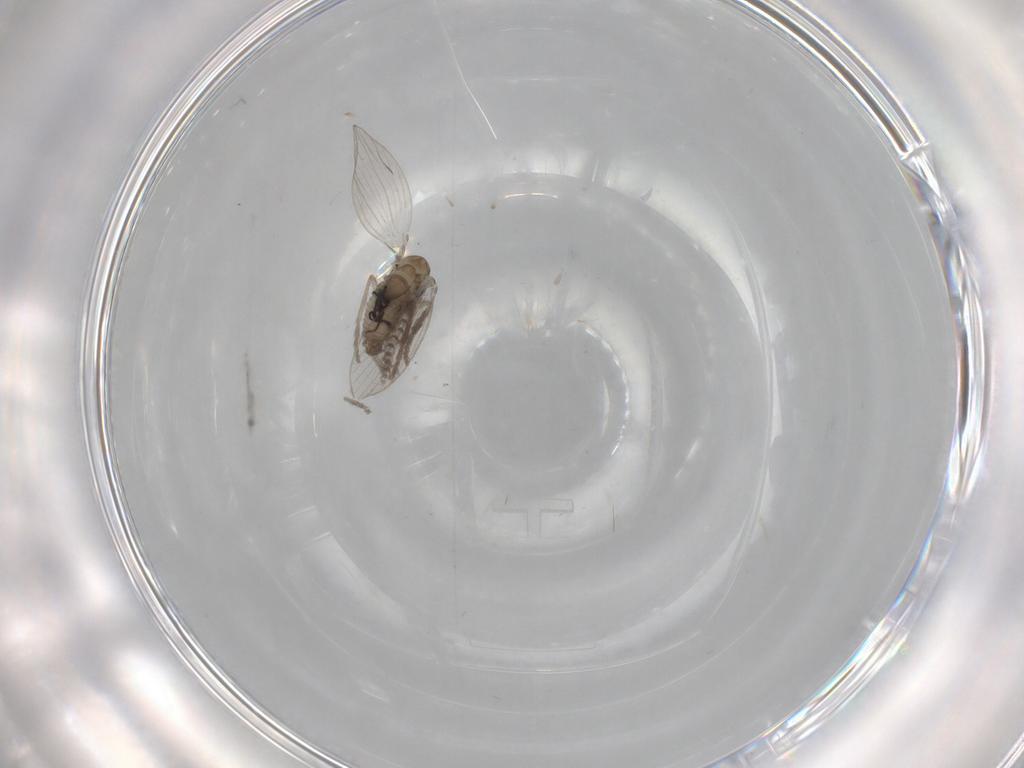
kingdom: Animalia
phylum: Arthropoda
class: Insecta
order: Diptera
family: Psychodidae
